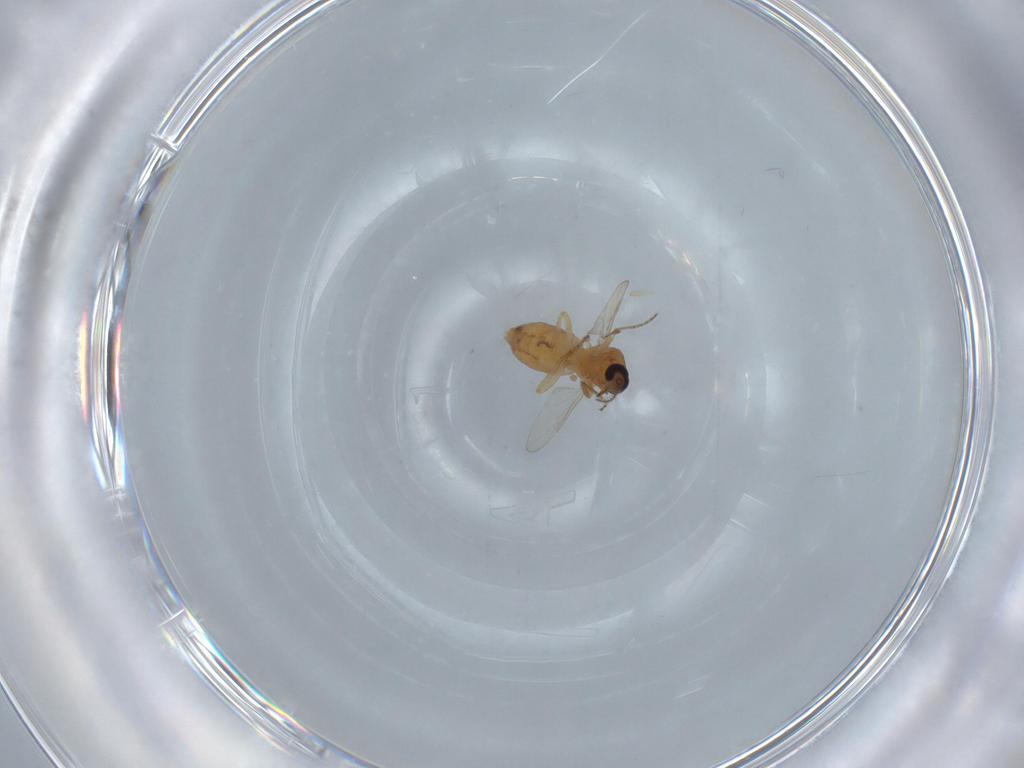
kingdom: Animalia
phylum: Arthropoda
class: Insecta
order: Diptera
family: Ceratopogonidae
